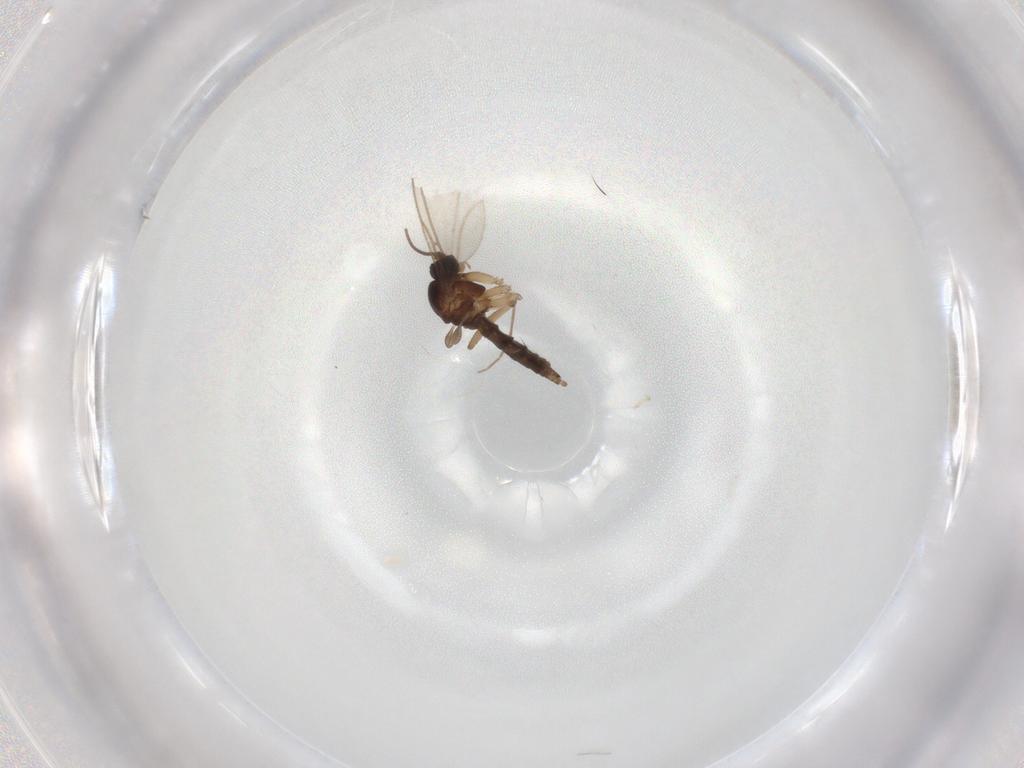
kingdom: Animalia
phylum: Arthropoda
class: Insecta
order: Diptera
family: Sciaridae
